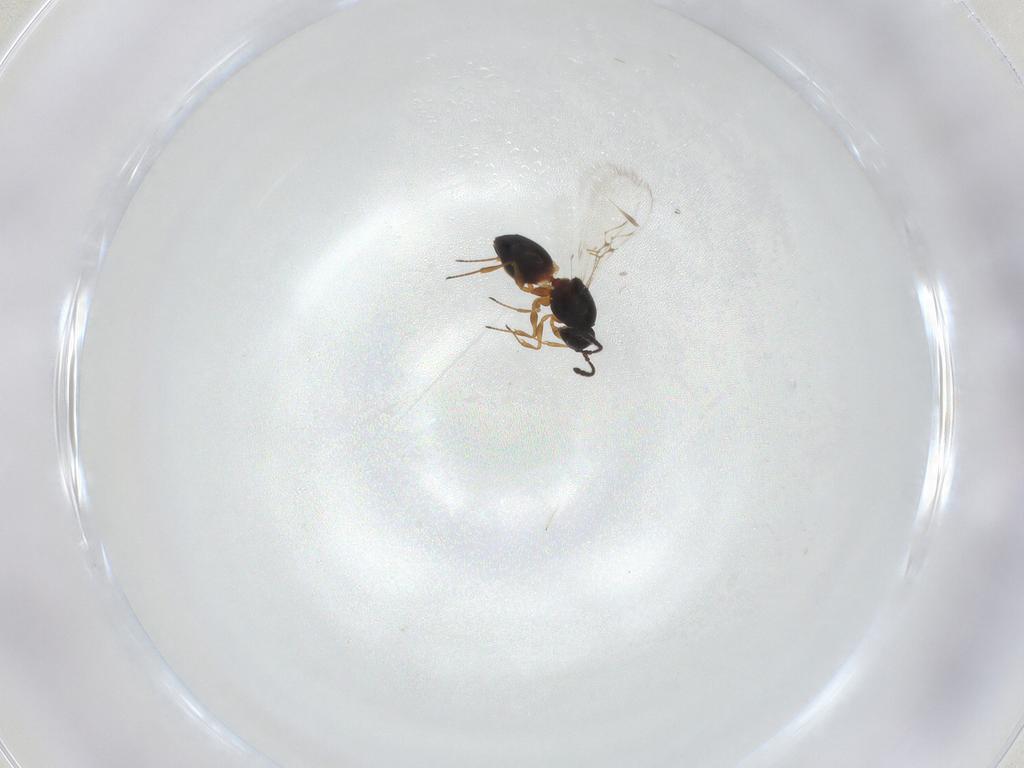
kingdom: Animalia
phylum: Arthropoda
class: Insecta
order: Hymenoptera
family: Figitidae
